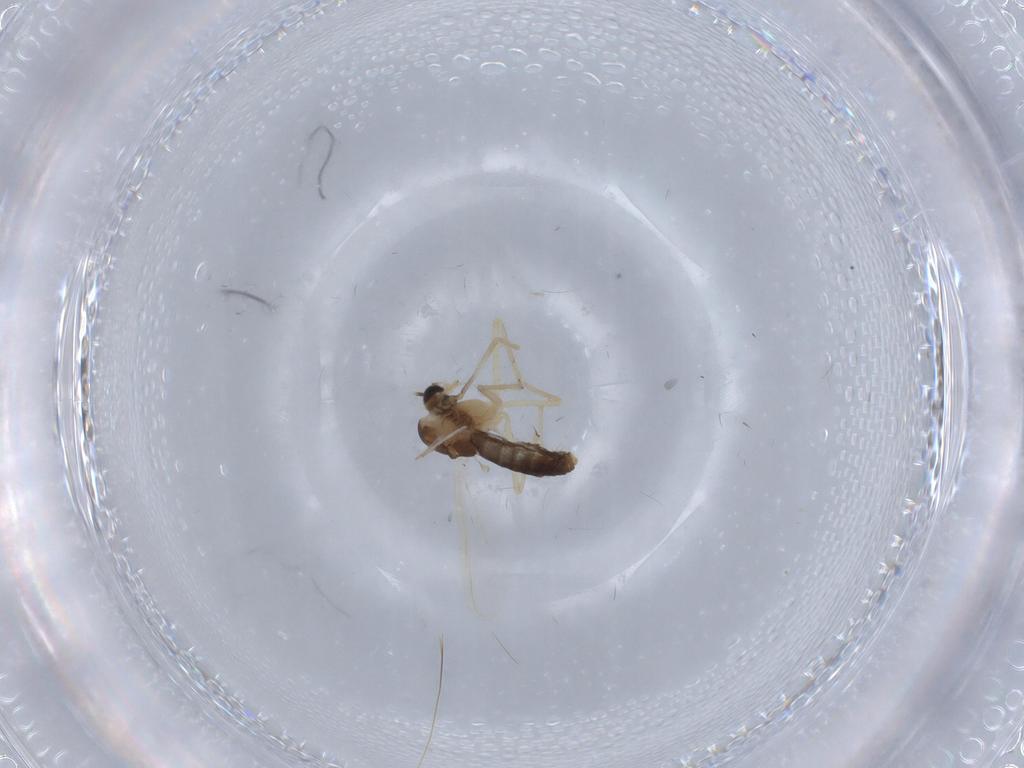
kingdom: Animalia
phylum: Arthropoda
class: Insecta
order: Diptera
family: Chironomidae
